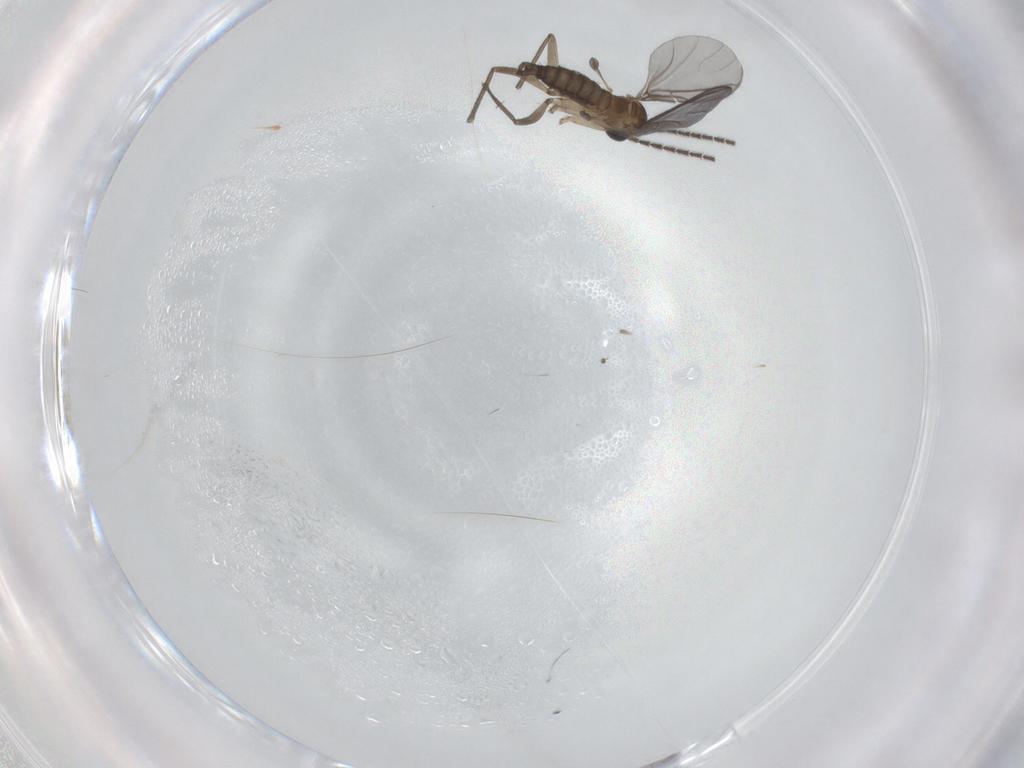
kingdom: Animalia
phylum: Arthropoda
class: Insecta
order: Diptera
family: Sciaridae
